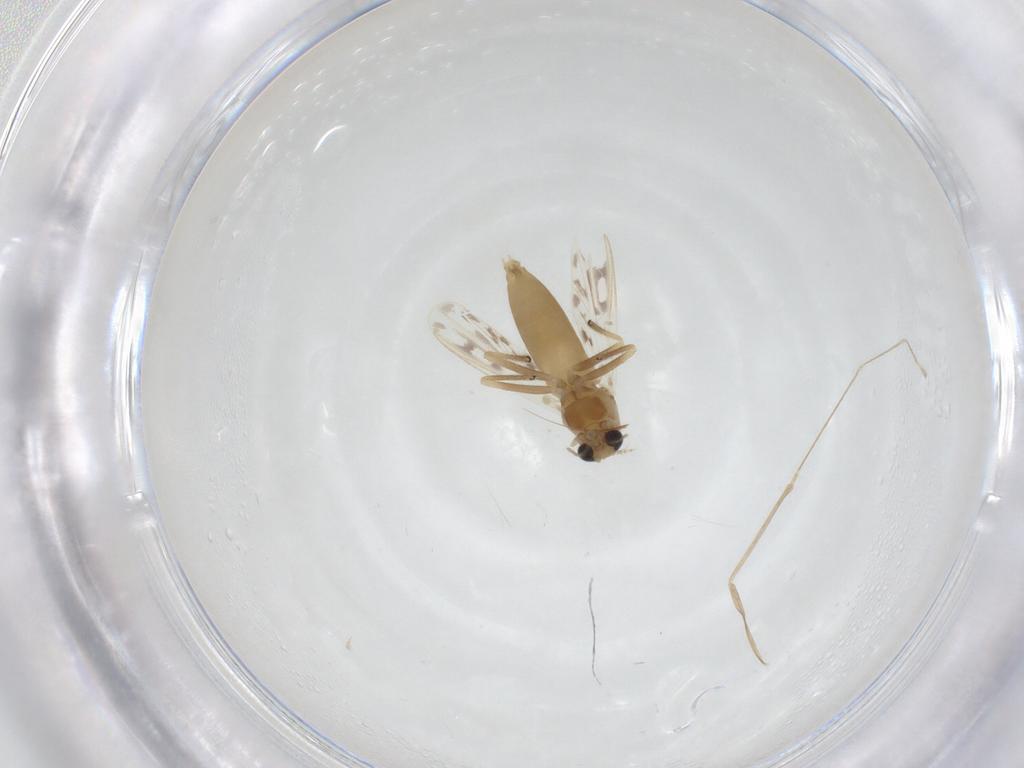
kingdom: Animalia
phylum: Arthropoda
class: Insecta
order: Diptera
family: Chironomidae
